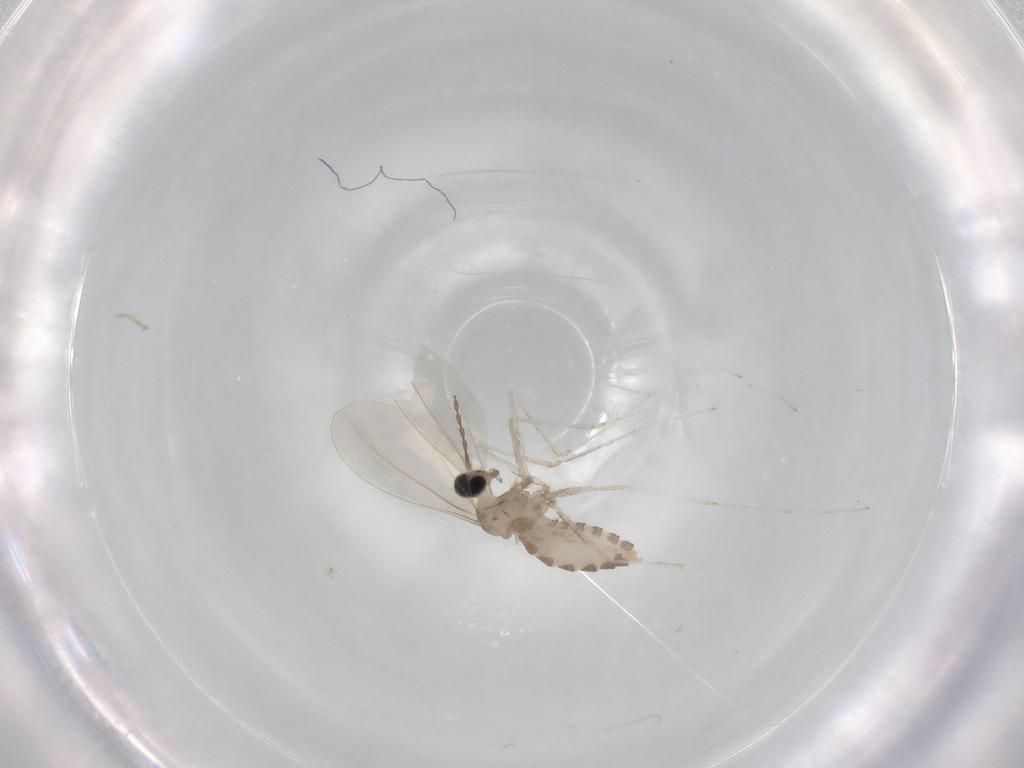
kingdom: Animalia
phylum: Arthropoda
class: Insecta
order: Diptera
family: Cecidomyiidae
